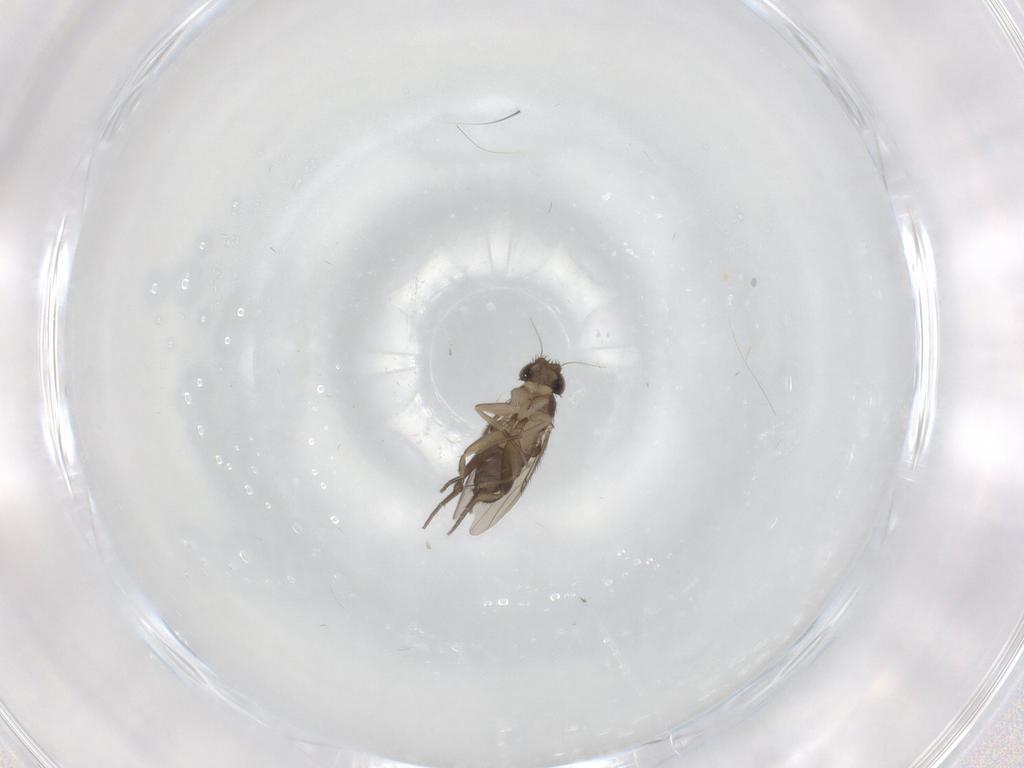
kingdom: Animalia
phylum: Arthropoda
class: Insecta
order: Diptera
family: Phoridae
